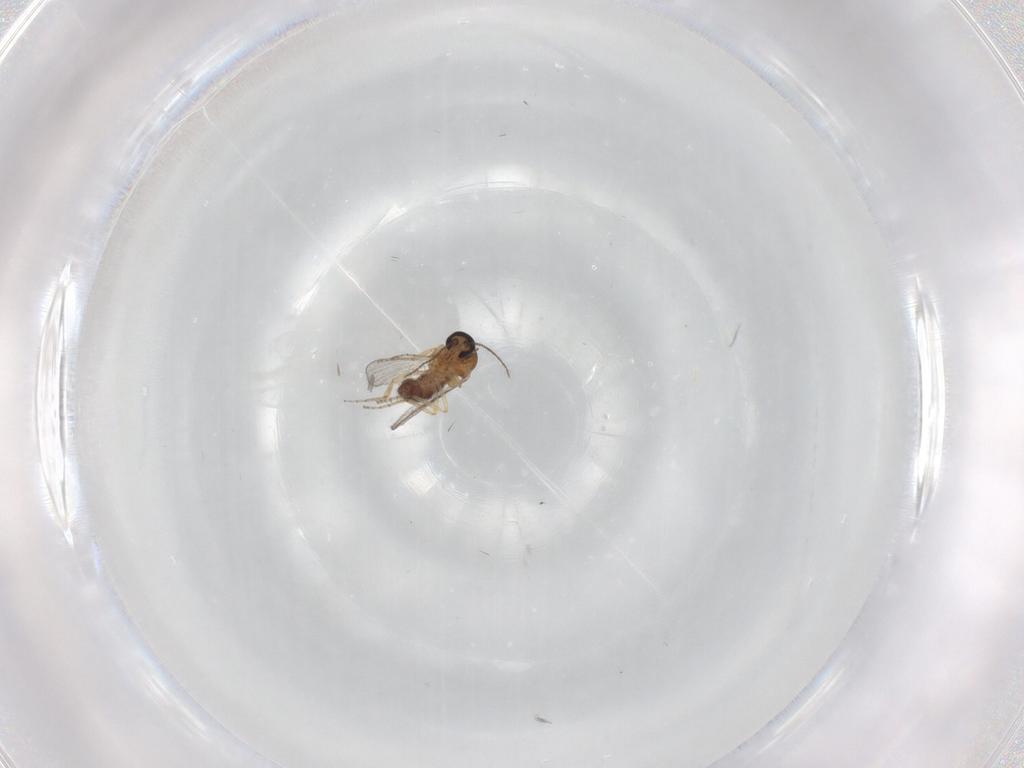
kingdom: Animalia
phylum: Arthropoda
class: Insecta
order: Diptera
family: Ceratopogonidae
